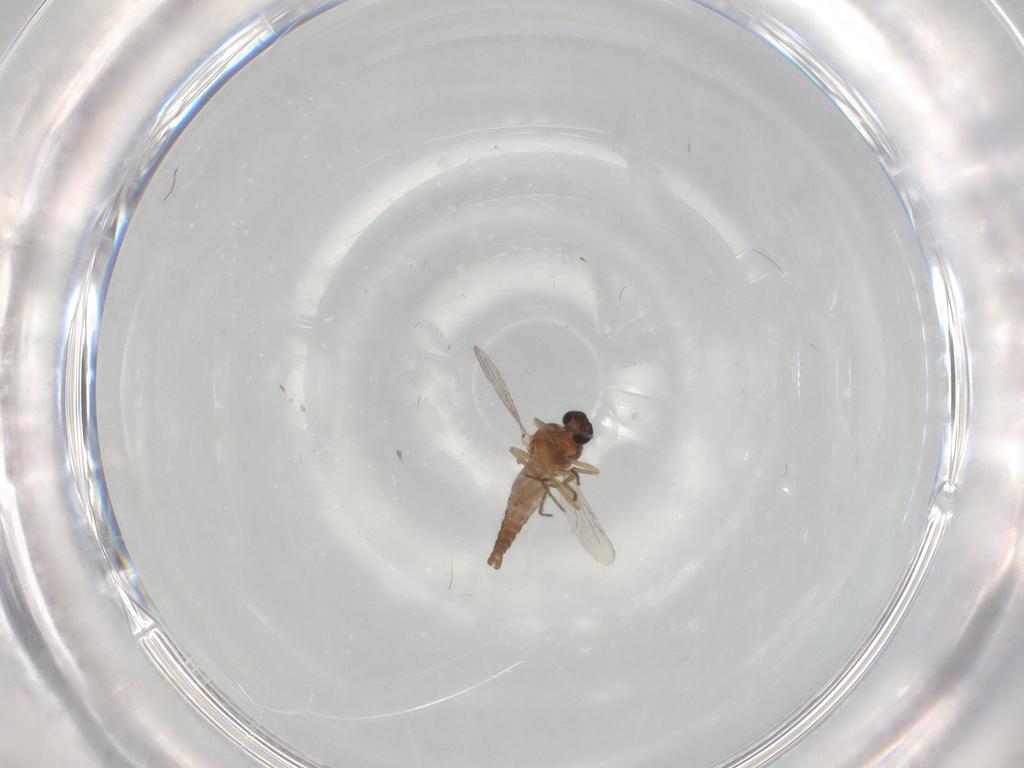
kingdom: Animalia
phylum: Arthropoda
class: Insecta
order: Diptera
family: Ceratopogonidae
